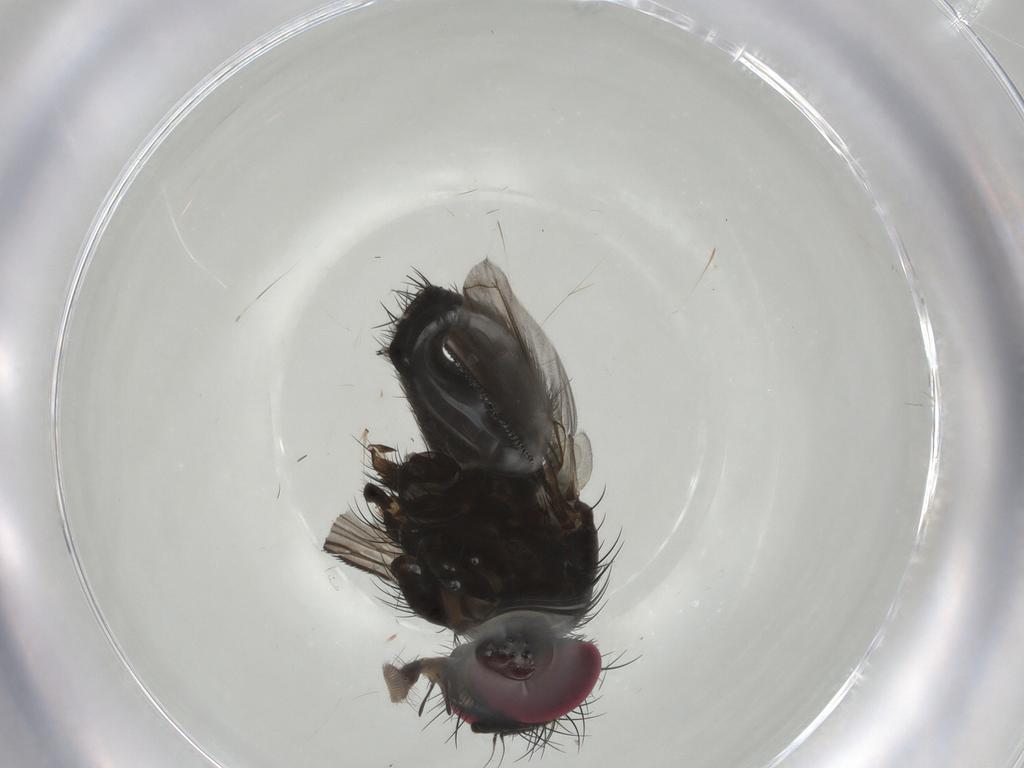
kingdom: Animalia
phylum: Arthropoda
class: Insecta
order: Diptera
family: Calliphoridae
